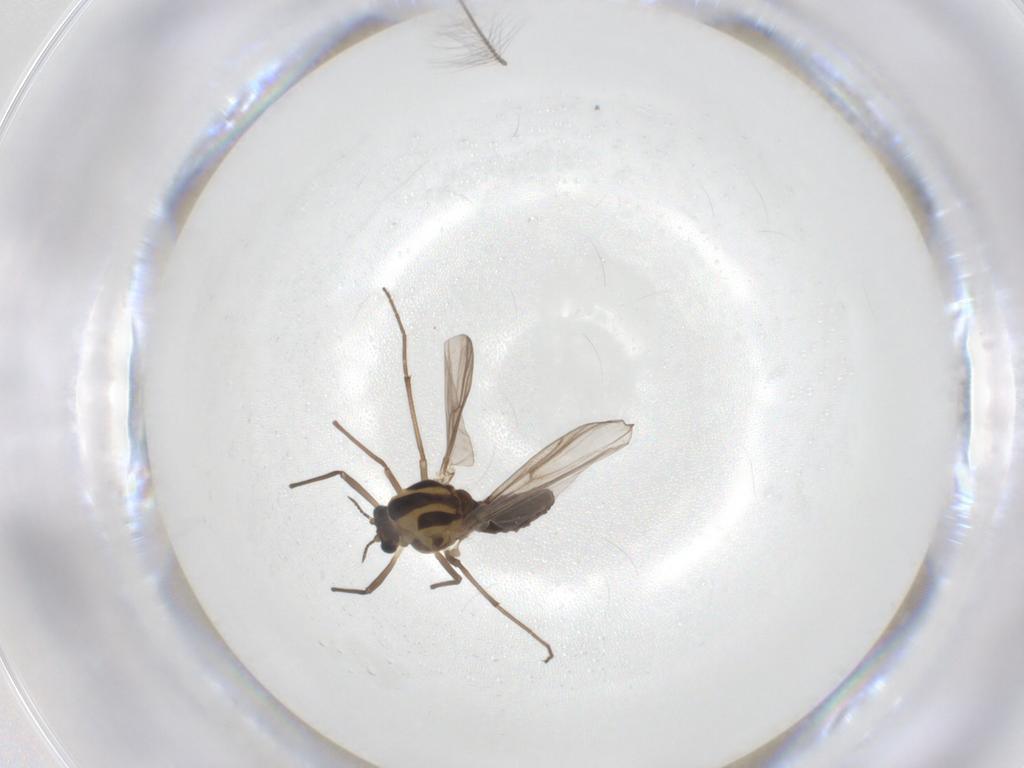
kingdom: Animalia
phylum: Arthropoda
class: Insecta
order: Diptera
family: Chironomidae
